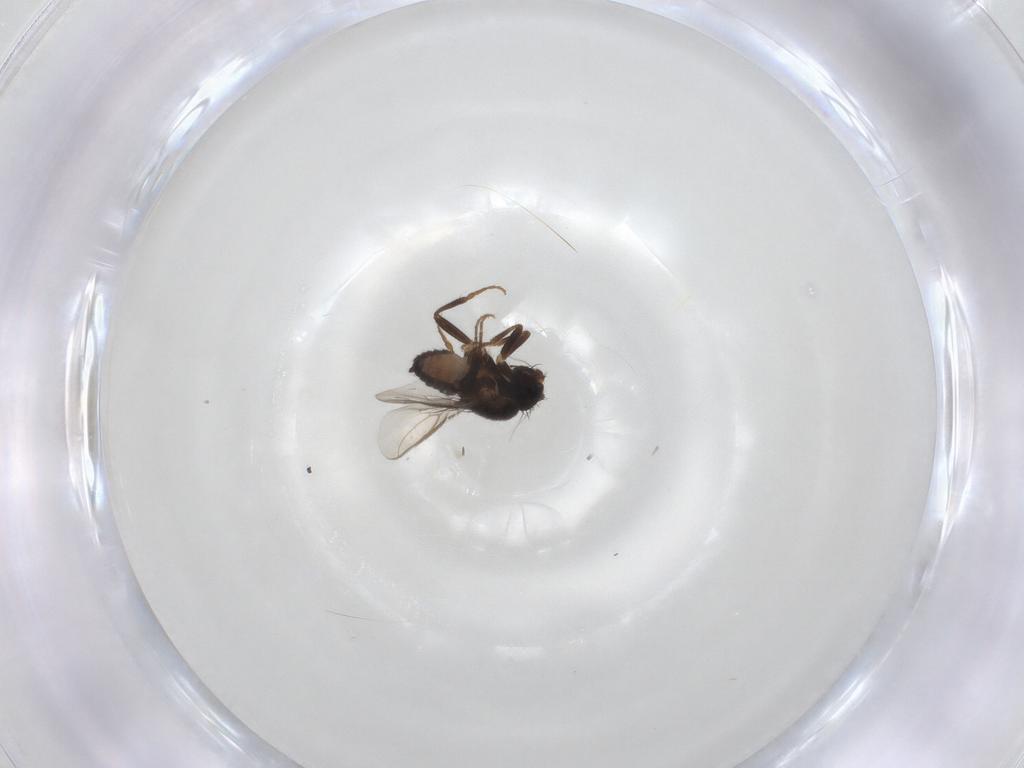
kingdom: Animalia
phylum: Arthropoda
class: Insecta
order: Diptera
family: Sphaeroceridae
